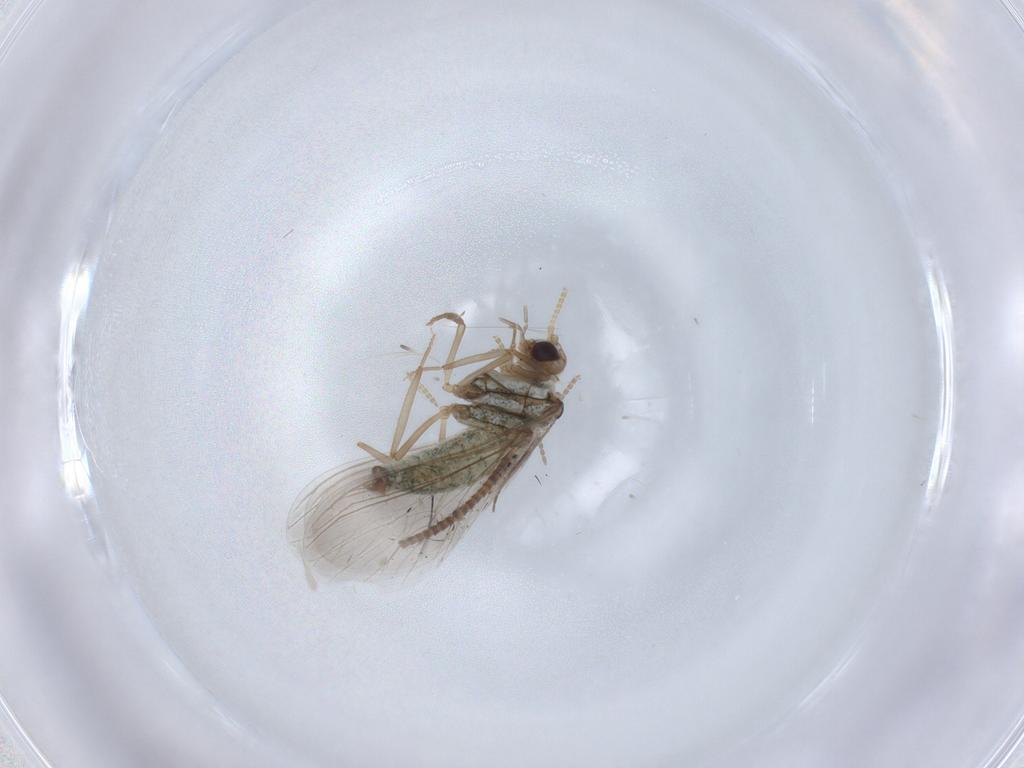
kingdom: Animalia
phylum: Arthropoda
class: Insecta
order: Neuroptera
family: Coniopterygidae
